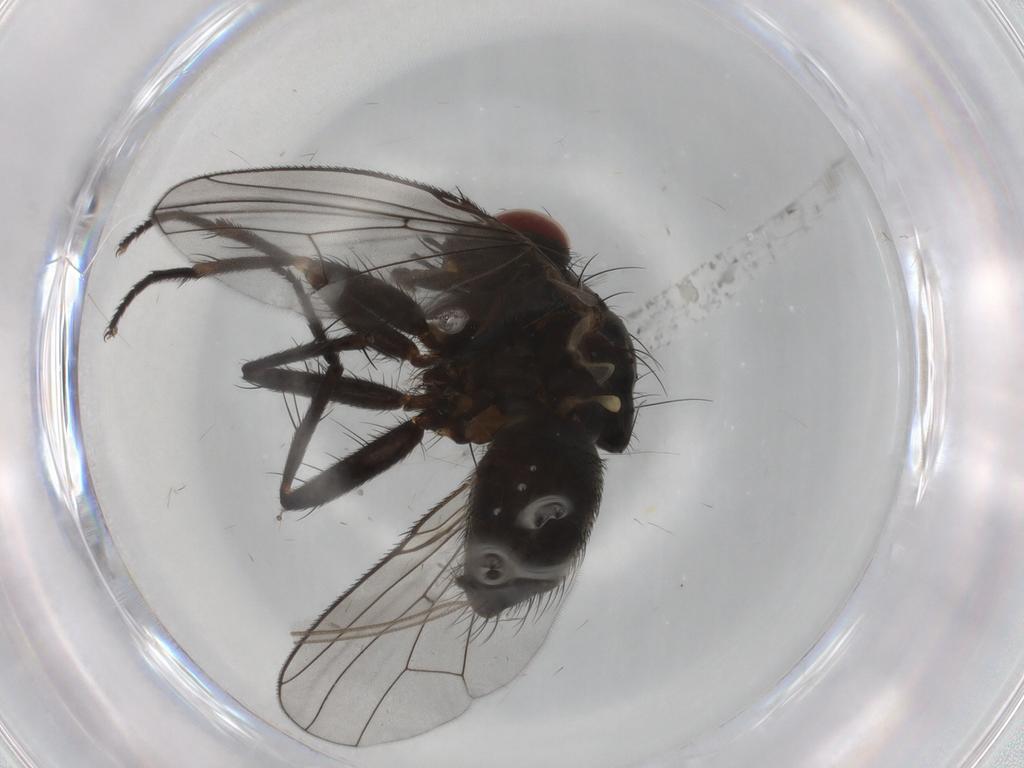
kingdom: Animalia
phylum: Arthropoda
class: Insecta
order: Diptera
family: Muscidae
